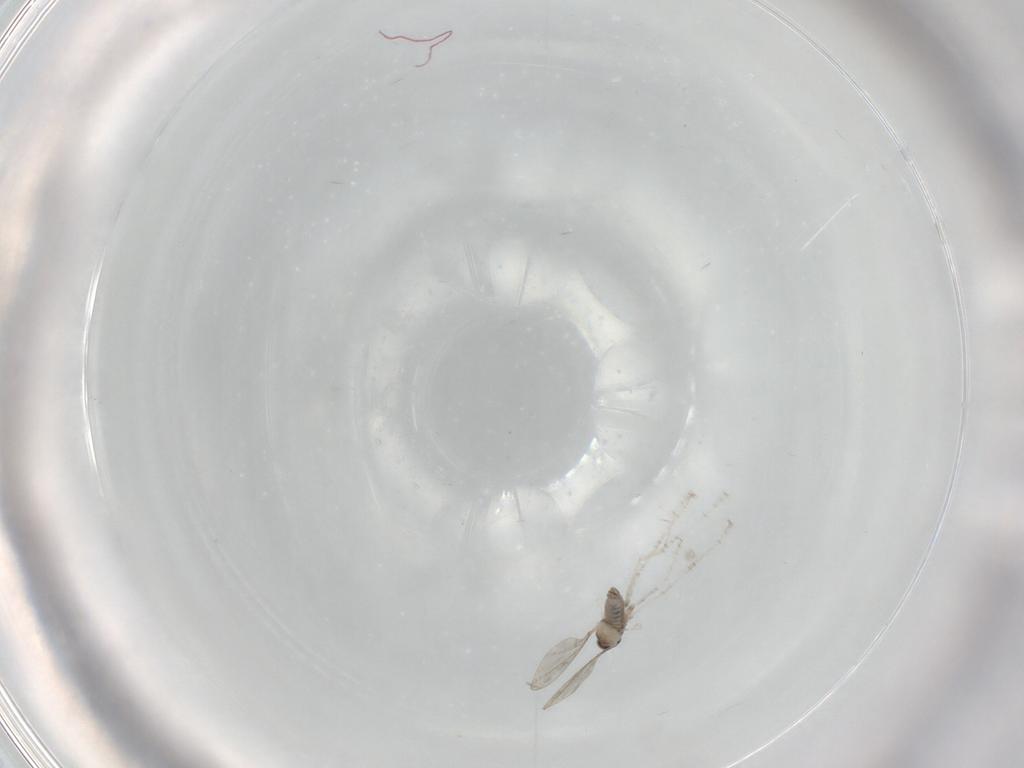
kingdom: Animalia
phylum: Arthropoda
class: Insecta
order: Diptera
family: Cecidomyiidae
